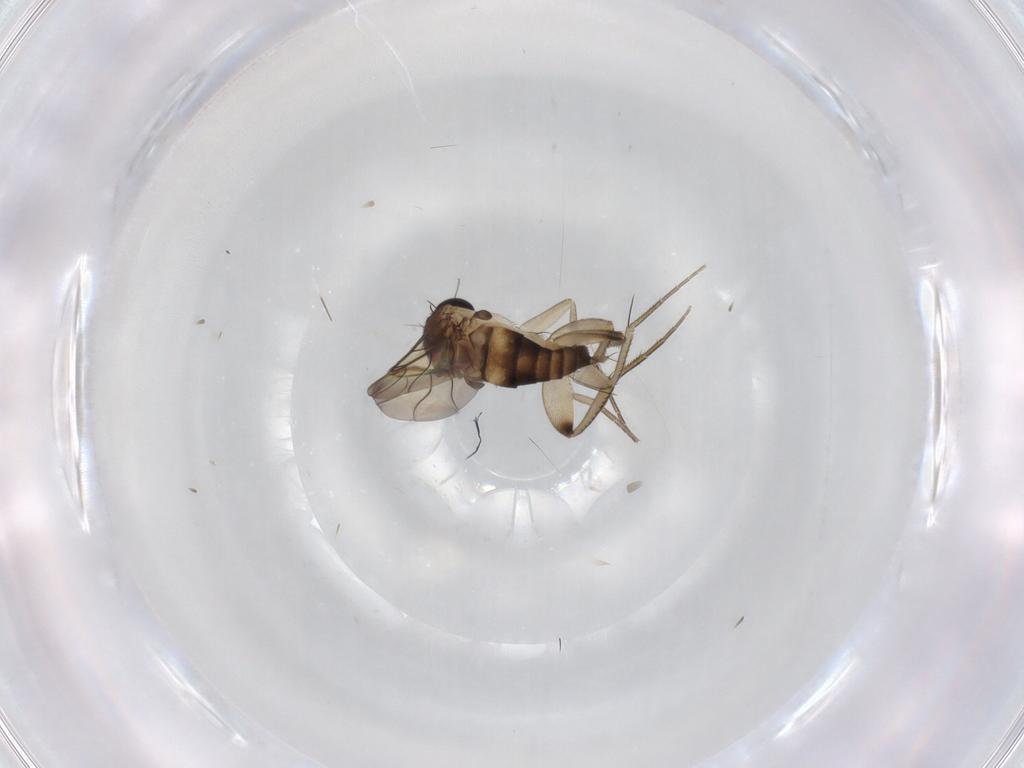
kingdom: Animalia
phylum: Arthropoda
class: Insecta
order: Diptera
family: Phoridae
